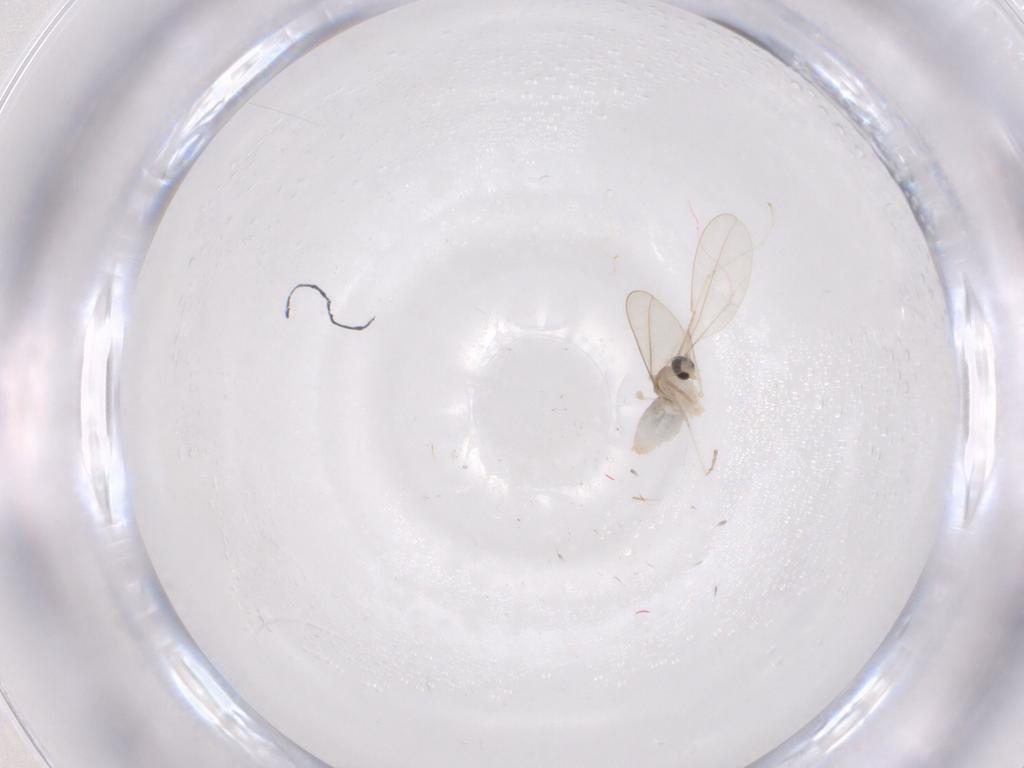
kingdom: Animalia
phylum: Arthropoda
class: Insecta
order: Diptera
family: Cecidomyiidae
